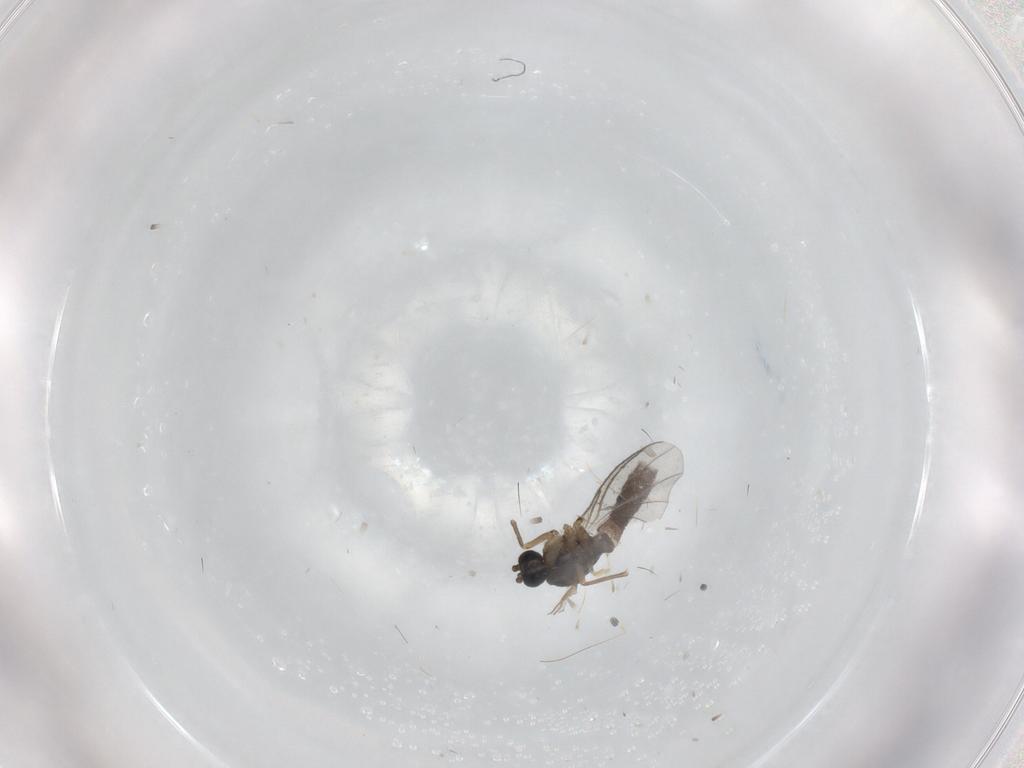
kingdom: Animalia
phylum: Arthropoda
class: Insecta
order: Diptera
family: Sciaridae
